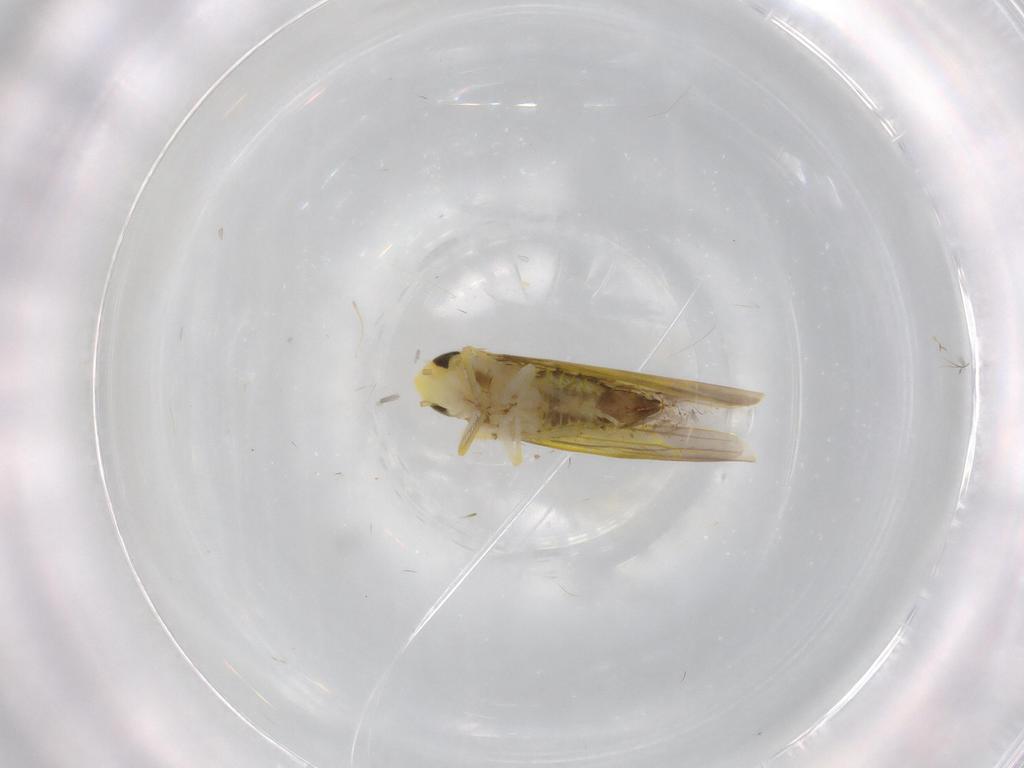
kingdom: Animalia
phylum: Arthropoda
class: Insecta
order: Hemiptera
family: Cicadellidae
